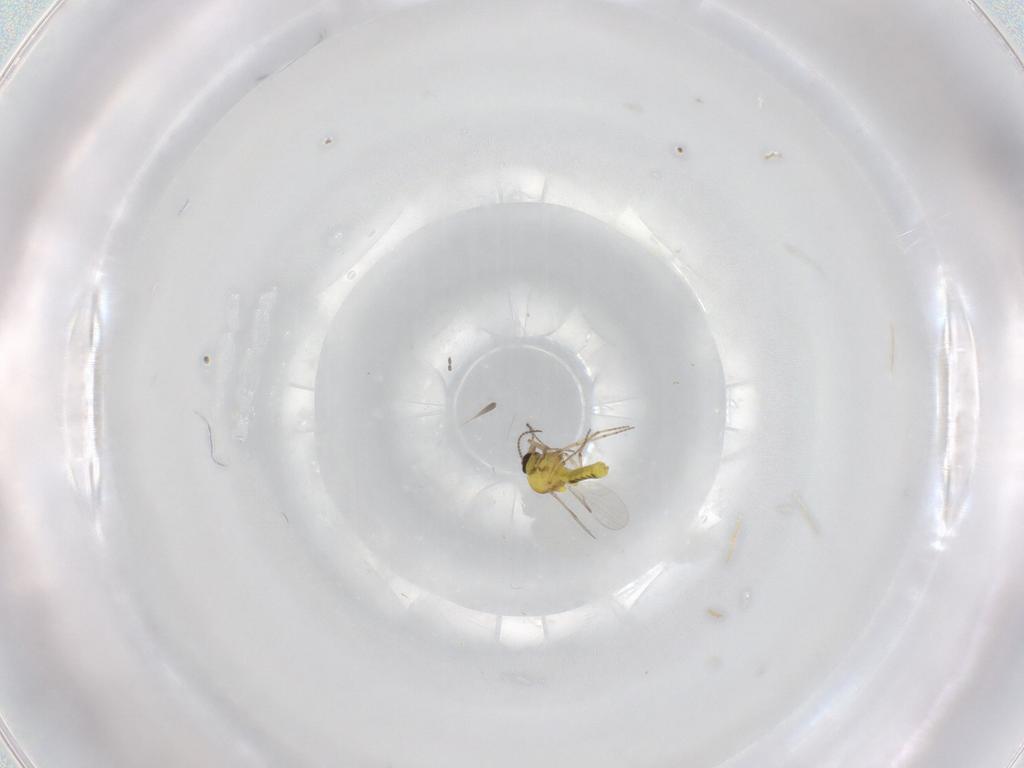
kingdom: Animalia
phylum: Arthropoda
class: Insecta
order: Diptera
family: Ceratopogonidae
